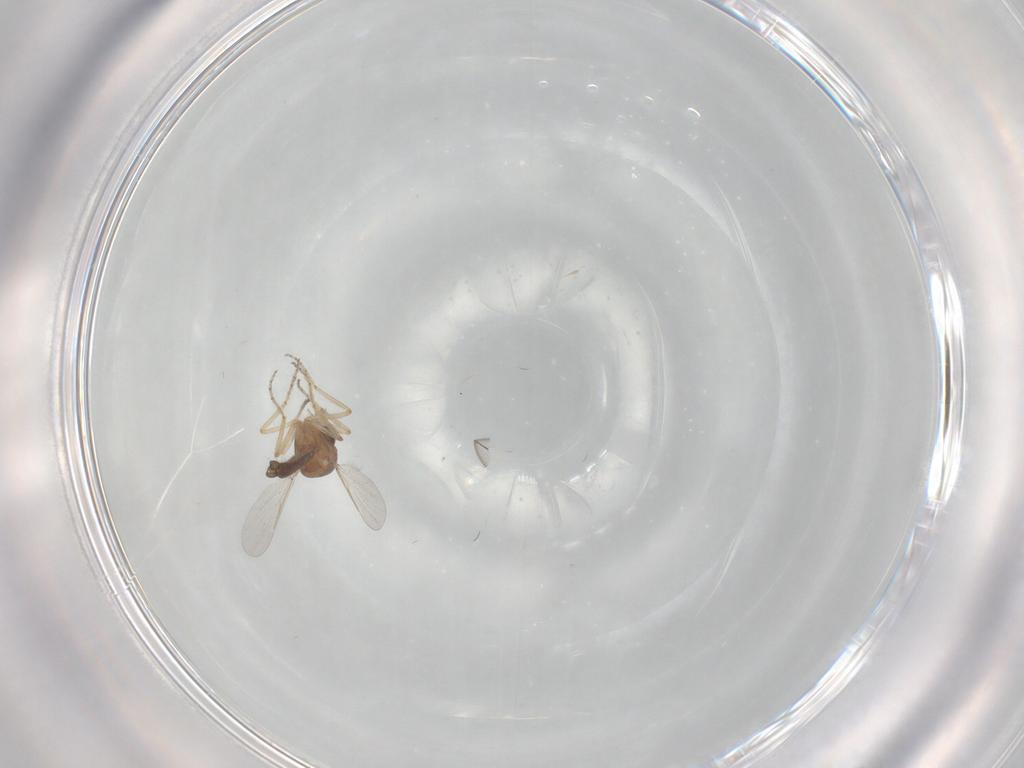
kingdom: Animalia
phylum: Arthropoda
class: Insecta
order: Diptera
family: Ceratopogonidae
